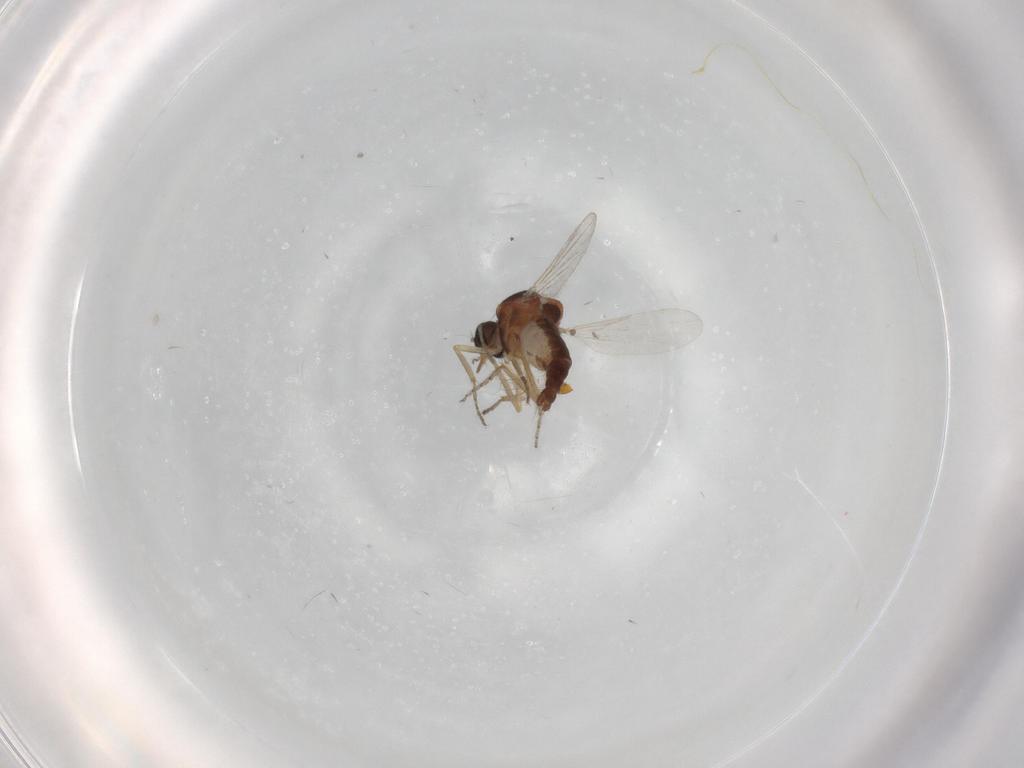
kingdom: Animalia
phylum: Arthropoda
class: Insecta
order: Diptera
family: Ceratopogonidae
